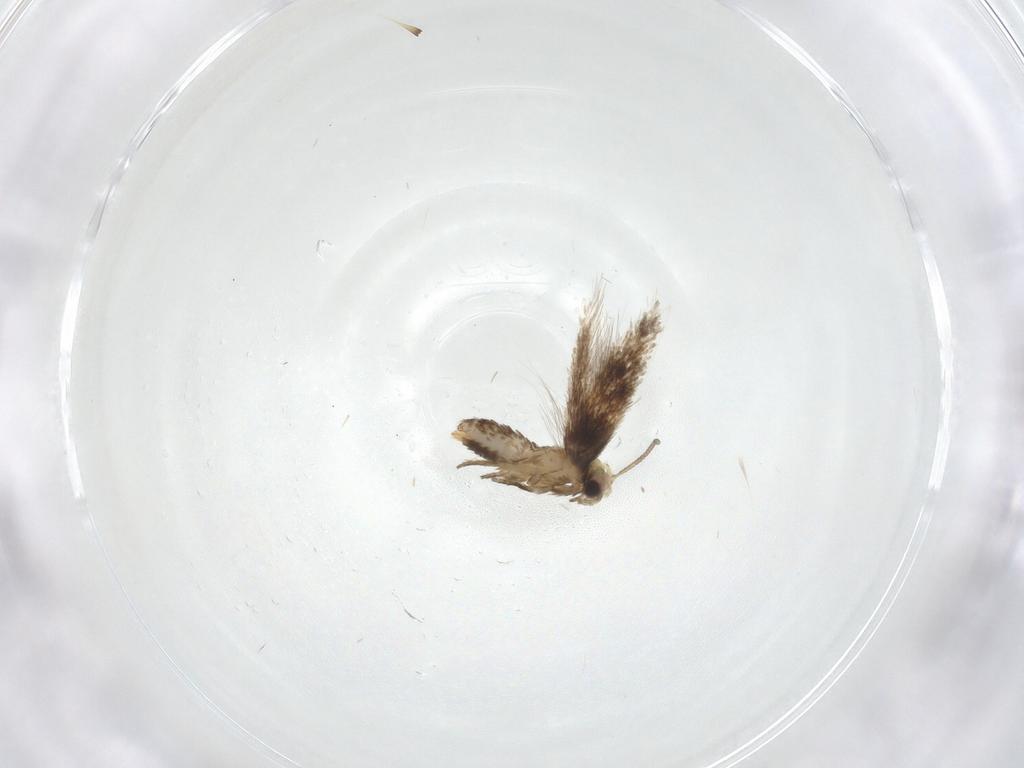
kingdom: Animalia
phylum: Arthropoda
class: Insecta
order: Lepidoptera
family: Nepticulidae
